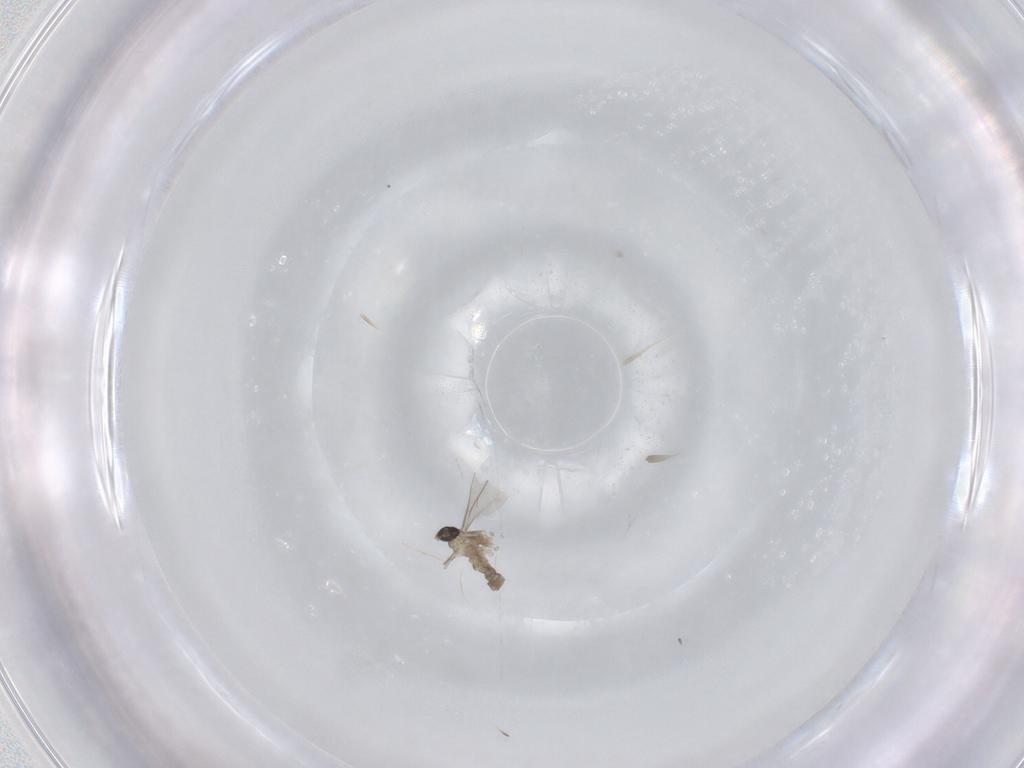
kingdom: Animalia
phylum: Arthropoda
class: Insecta
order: Diptera
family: Cecidomyiidae
